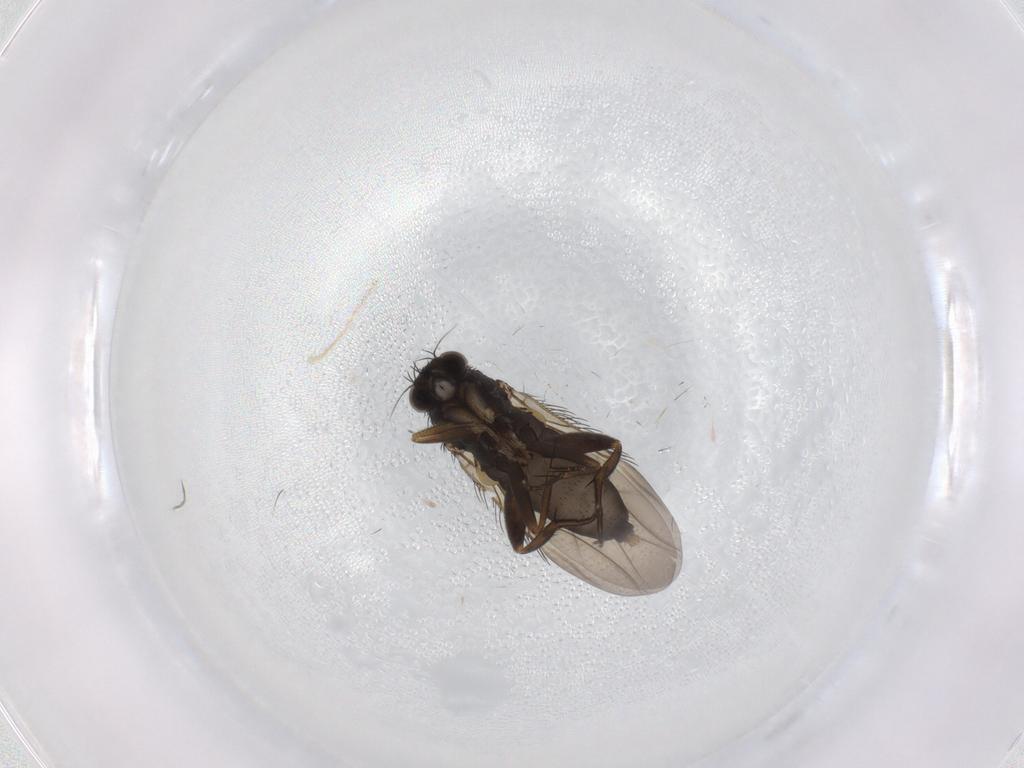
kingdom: Animalia
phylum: Arthropoda
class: Insecta
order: Diptera
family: Phoridae
